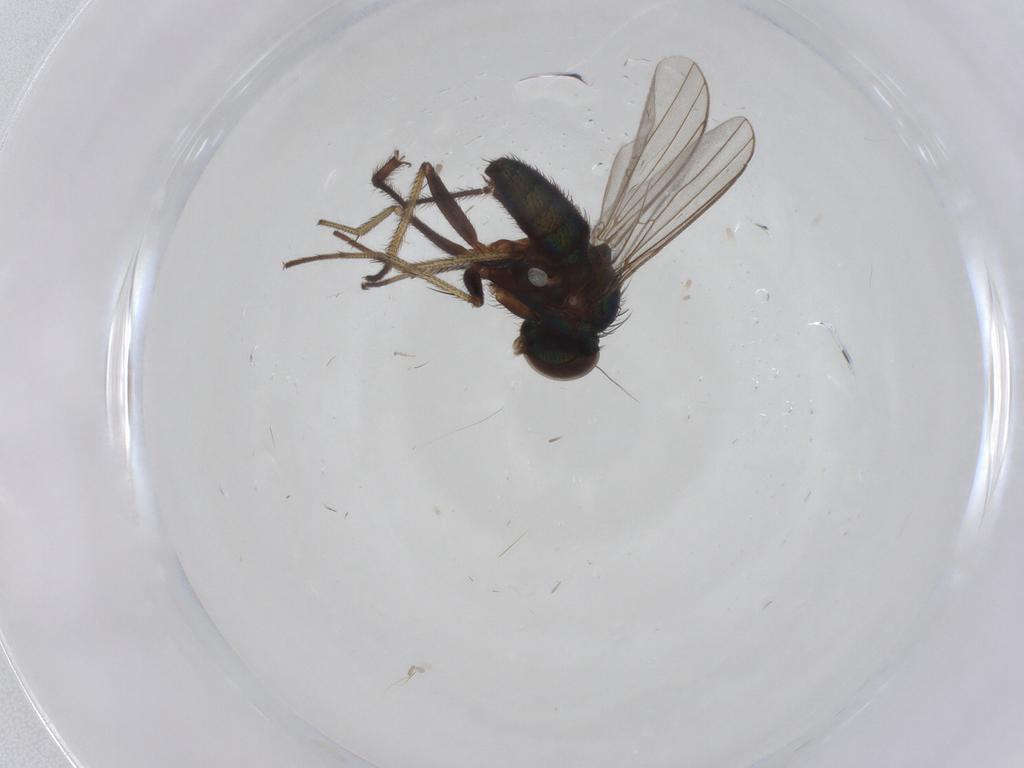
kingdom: Animalia
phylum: Arthropoda
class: Insecta
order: Diptera
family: Dolichopodidae
